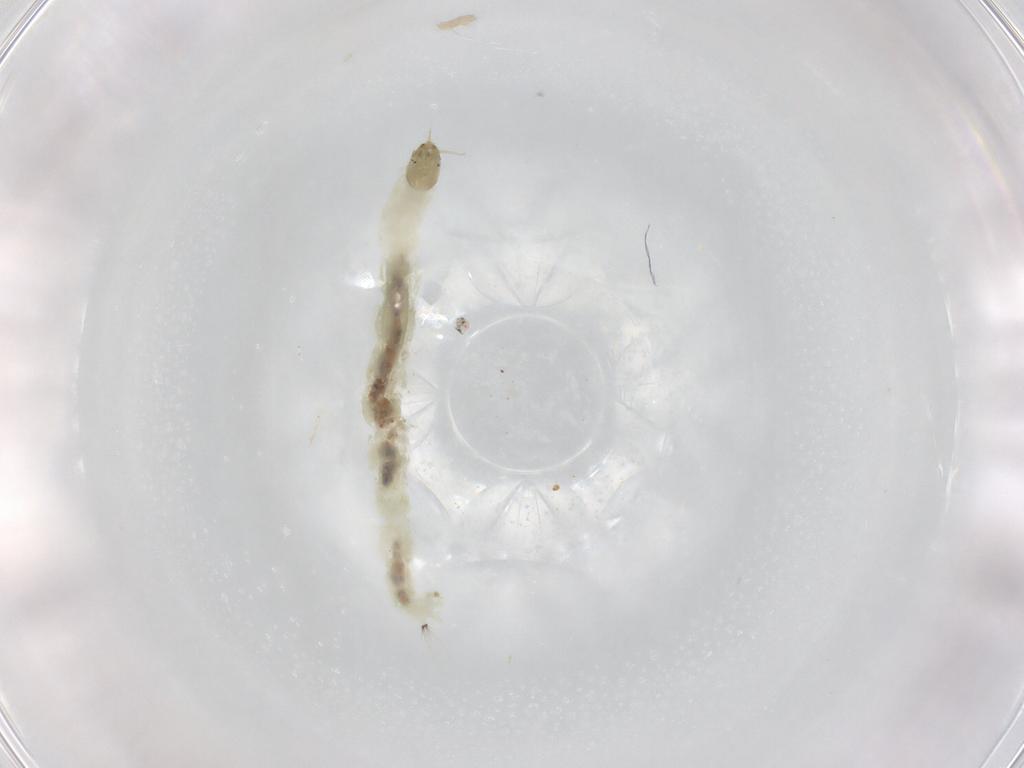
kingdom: Animalia
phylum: Arthropoda
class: Insecta
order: Diptera
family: Chironomidae
